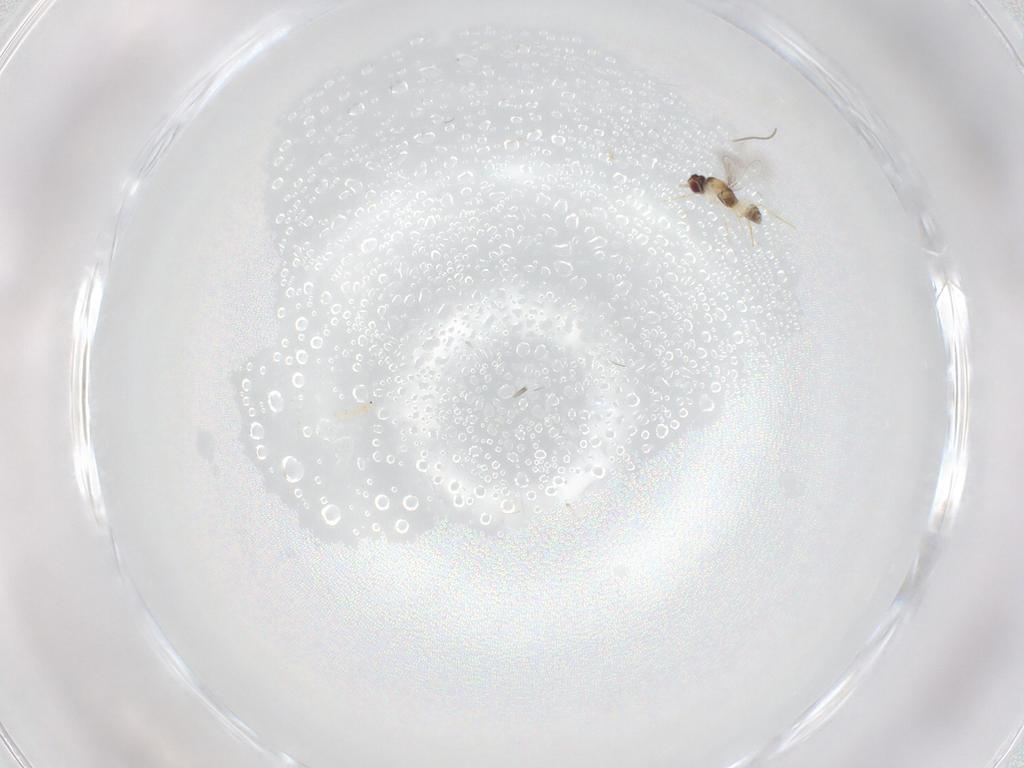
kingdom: Animalia
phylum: Arthropoda
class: Insecta
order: Hymenoptera
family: Mymaridae
